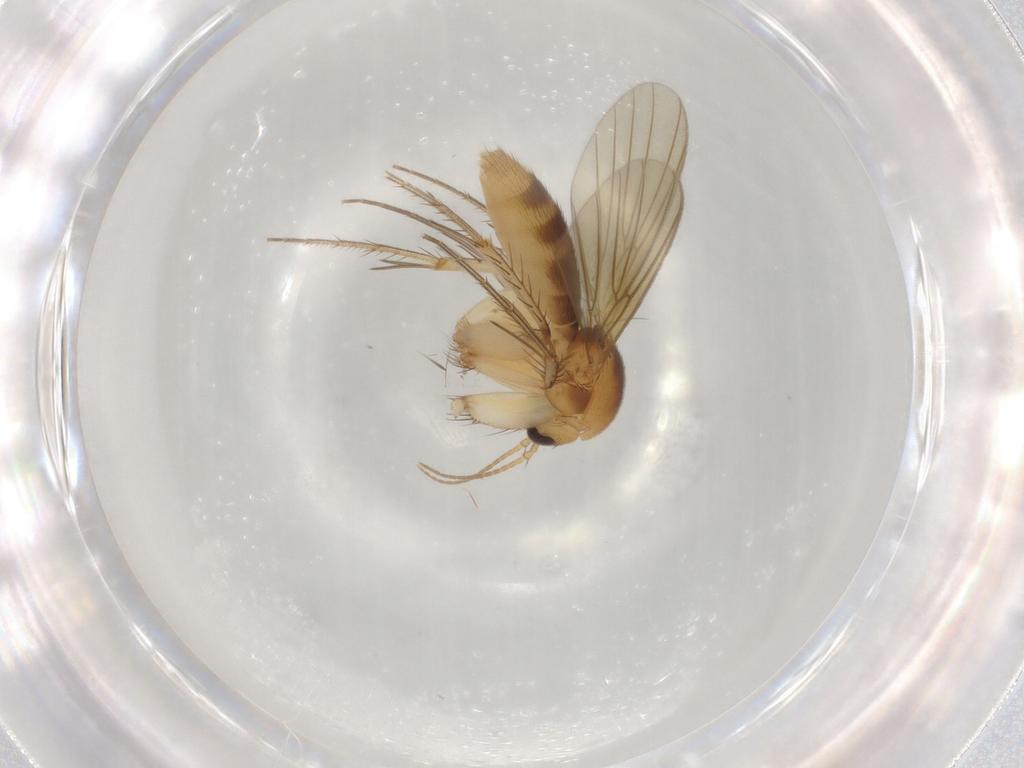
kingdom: Animalia
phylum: Arthropoda
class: Insecta
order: Diptera
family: Mycetophilidae
